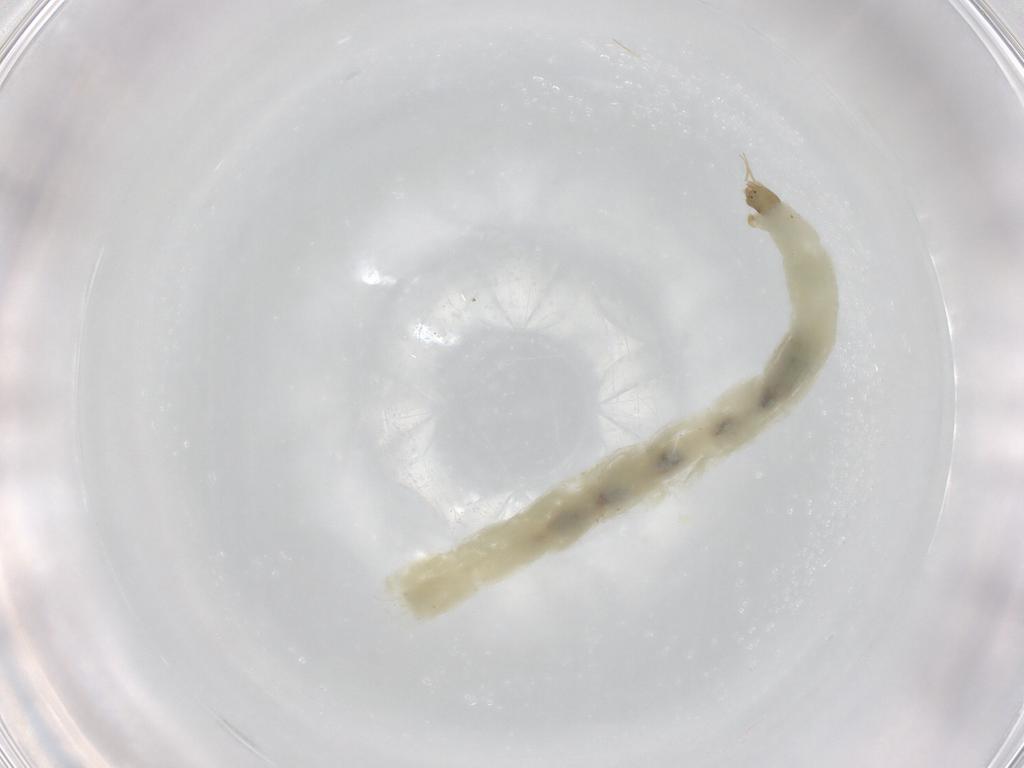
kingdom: Animalia
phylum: Arthropoda
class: Insecta
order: Diptera
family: Chironomidae
